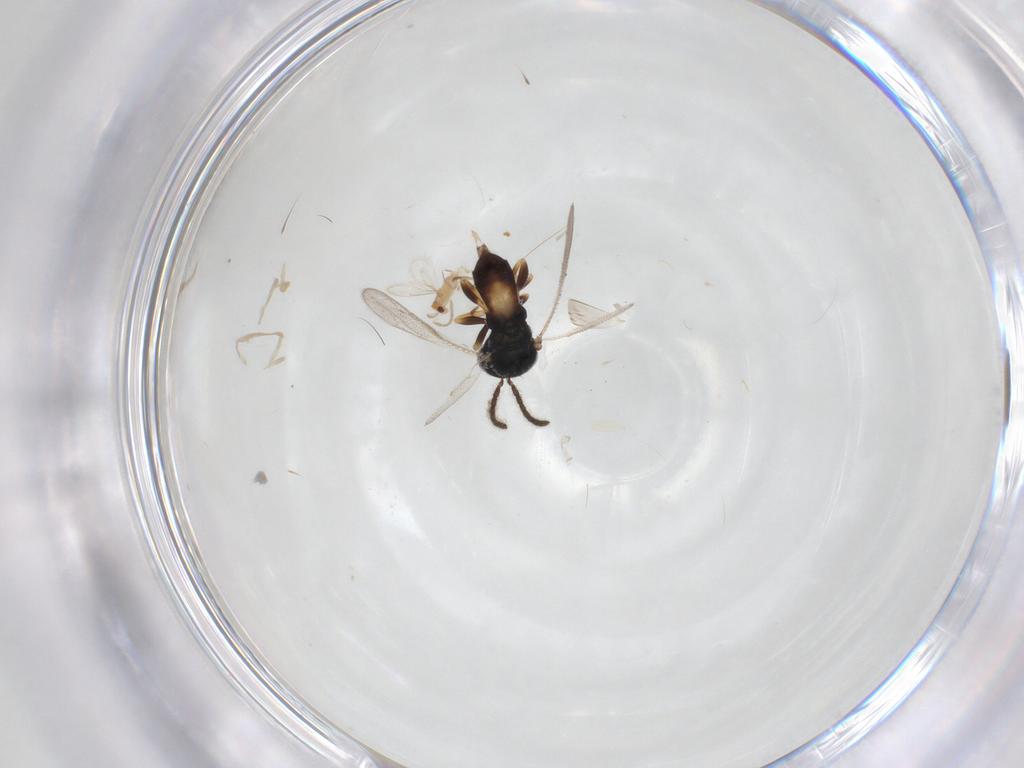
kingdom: Animalia
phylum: Arthropoda
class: Insecta
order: Hymenoptera
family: Pteromalidae
